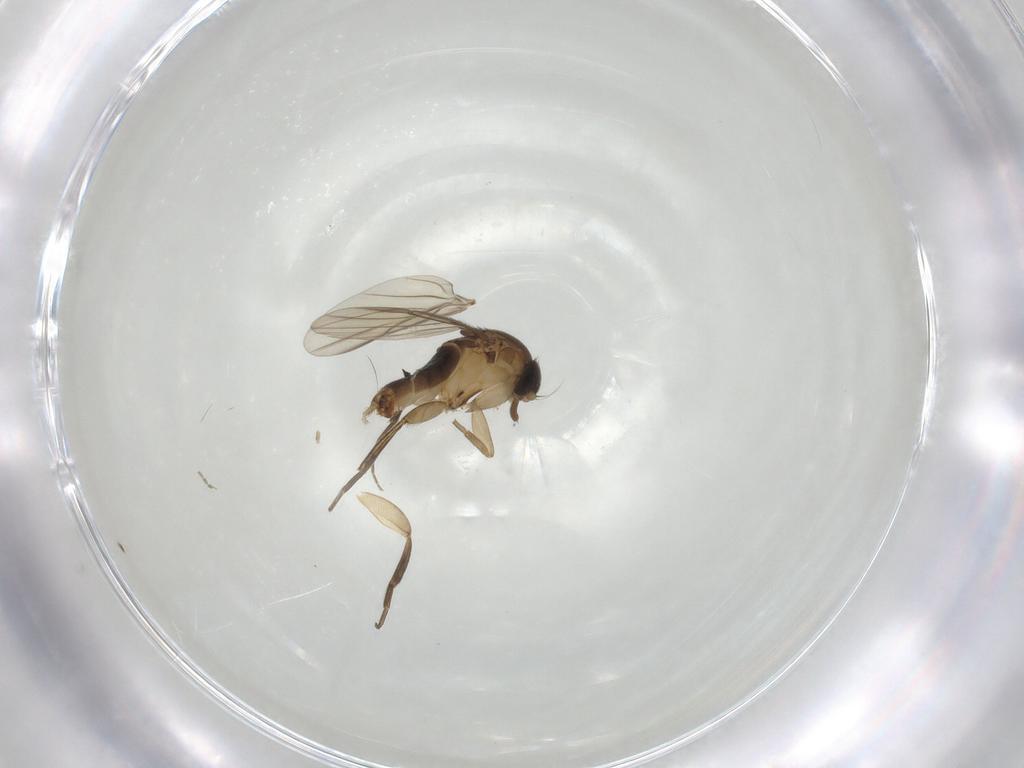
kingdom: Animalia
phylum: Arthropoda
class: Insecta
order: Diptera
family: Phoridae
